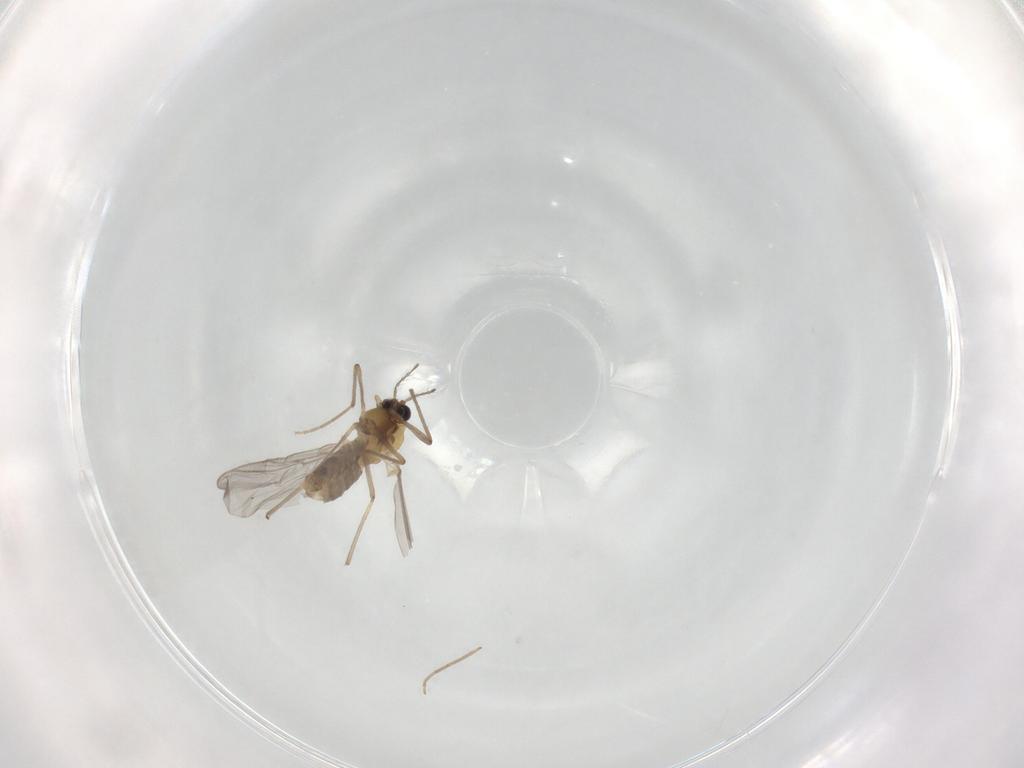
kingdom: Animalia
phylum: Arthropoda
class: Insecta
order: Diptera
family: Chironomidae
